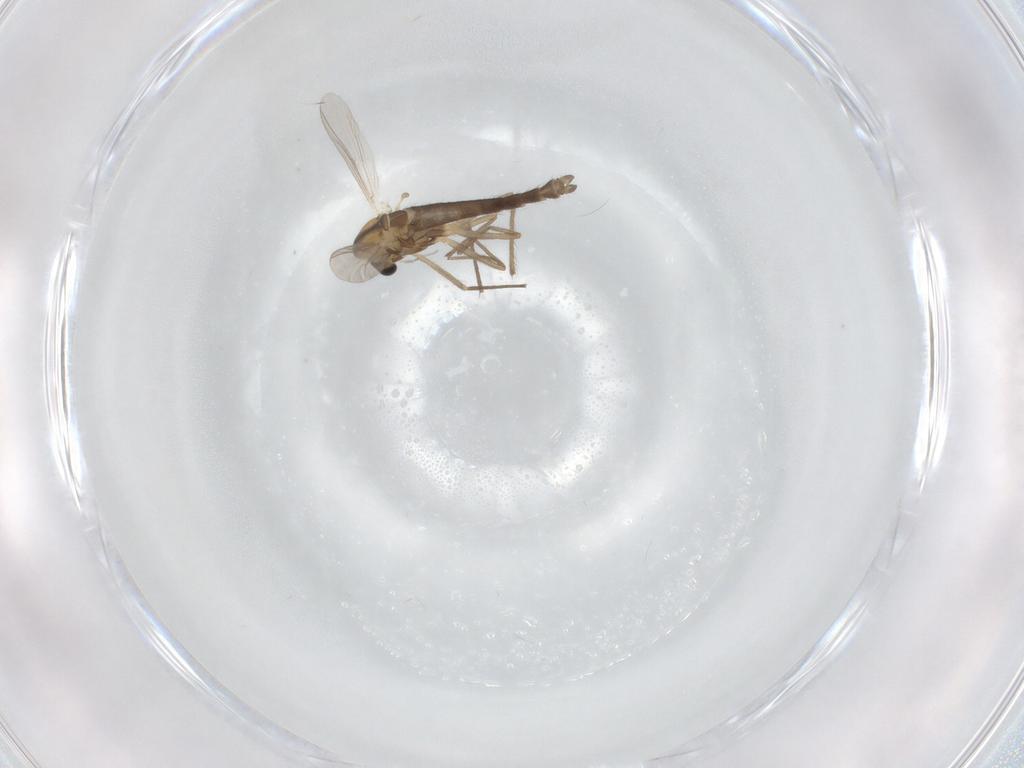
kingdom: Animalia
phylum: Arthropoda
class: Insecta
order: Diptera
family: Chironomidae
